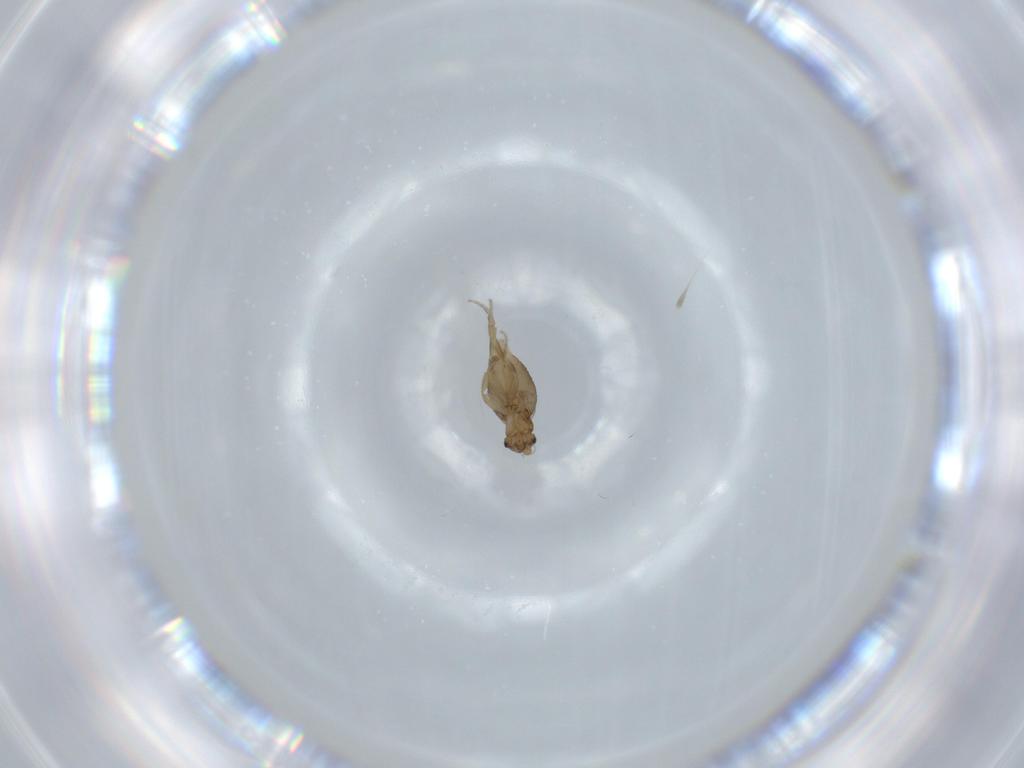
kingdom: Animalia
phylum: Arthropoda
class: Insecta
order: Diptera
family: Phoridae
